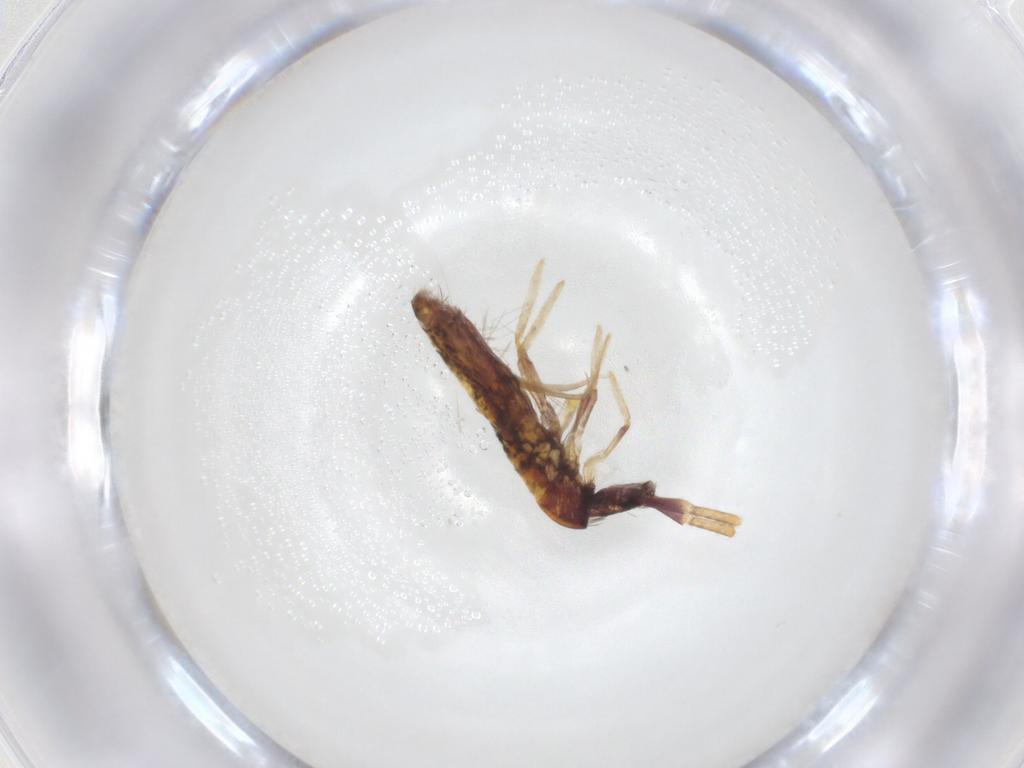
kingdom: Animalia
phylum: Arthropoda
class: Collembola
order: Entomobryomorpha
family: Entomobryidae
